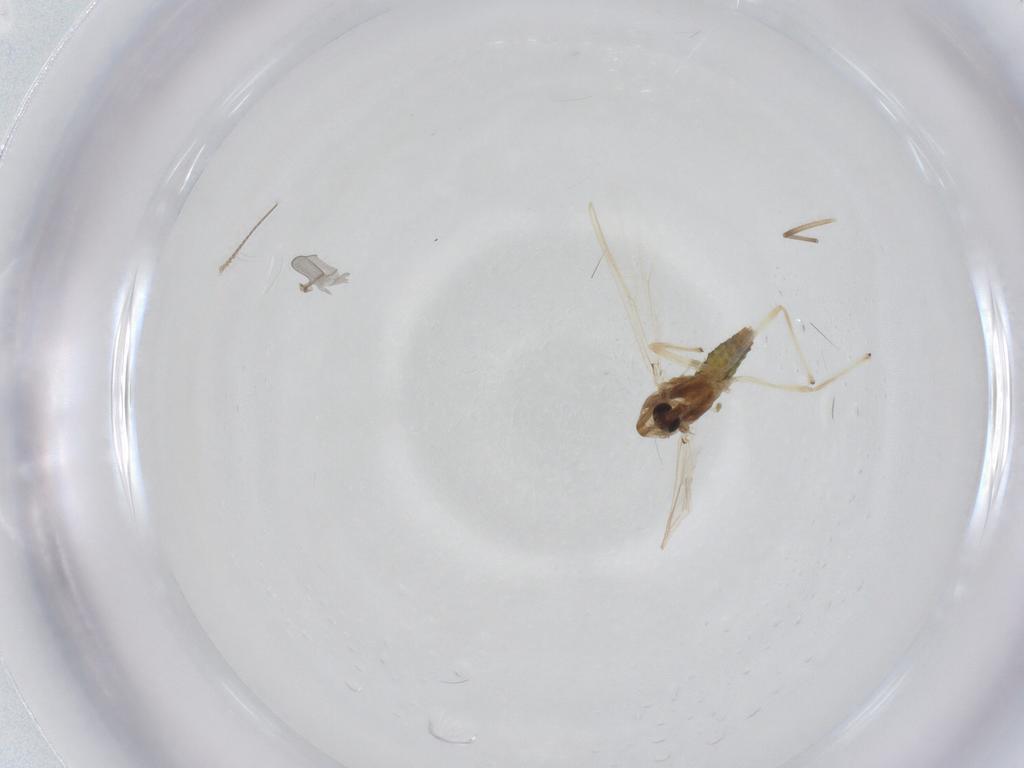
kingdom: Animalia
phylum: Arthropoda
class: Insecta
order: Diptera
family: Chironomidae
